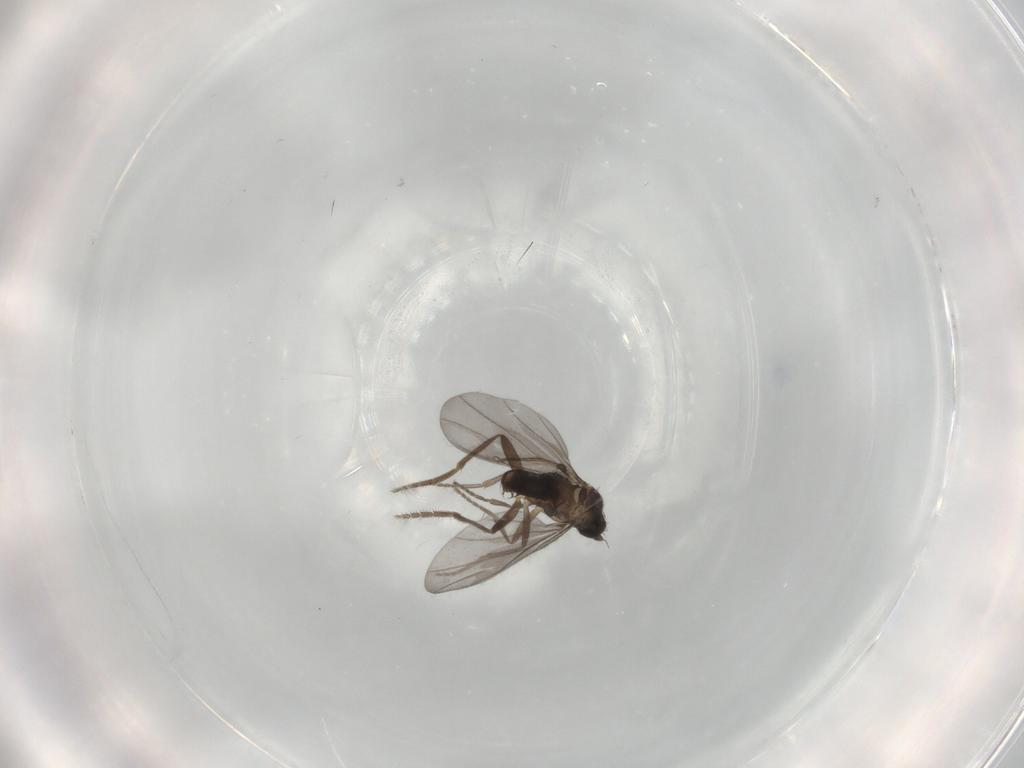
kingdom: Animalia
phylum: Arthropoda
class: Insecta
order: Diptera
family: Phoridae
